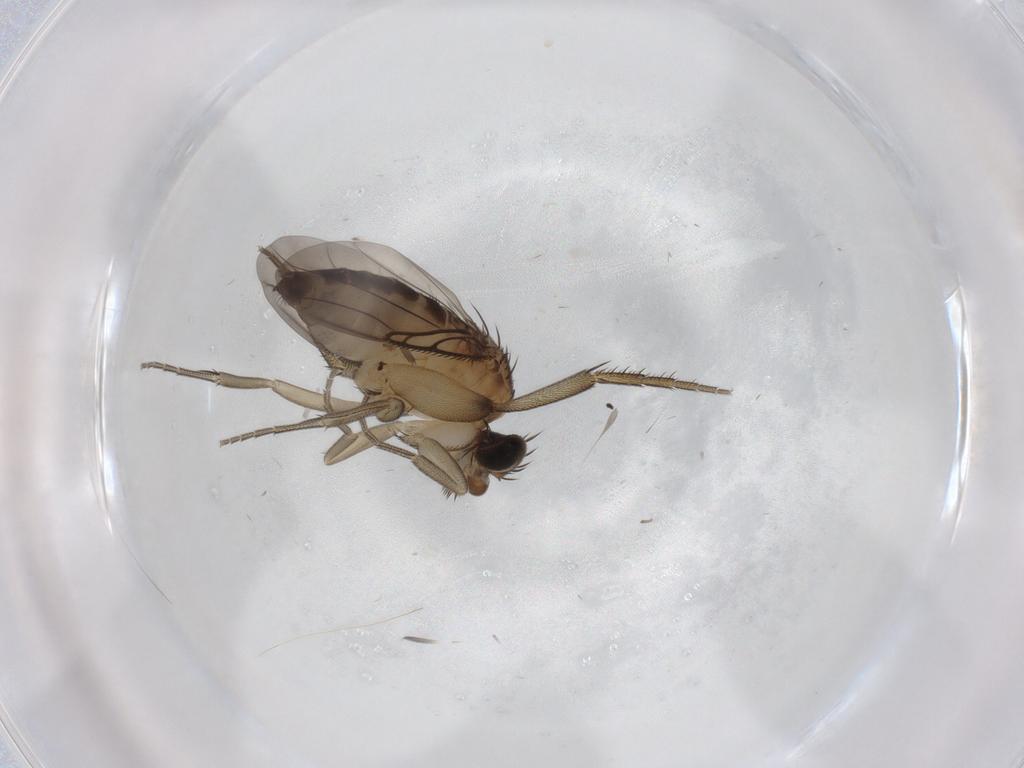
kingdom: Animalia
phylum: Arthropoda
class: Insecta
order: Diptera
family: Phoridae
